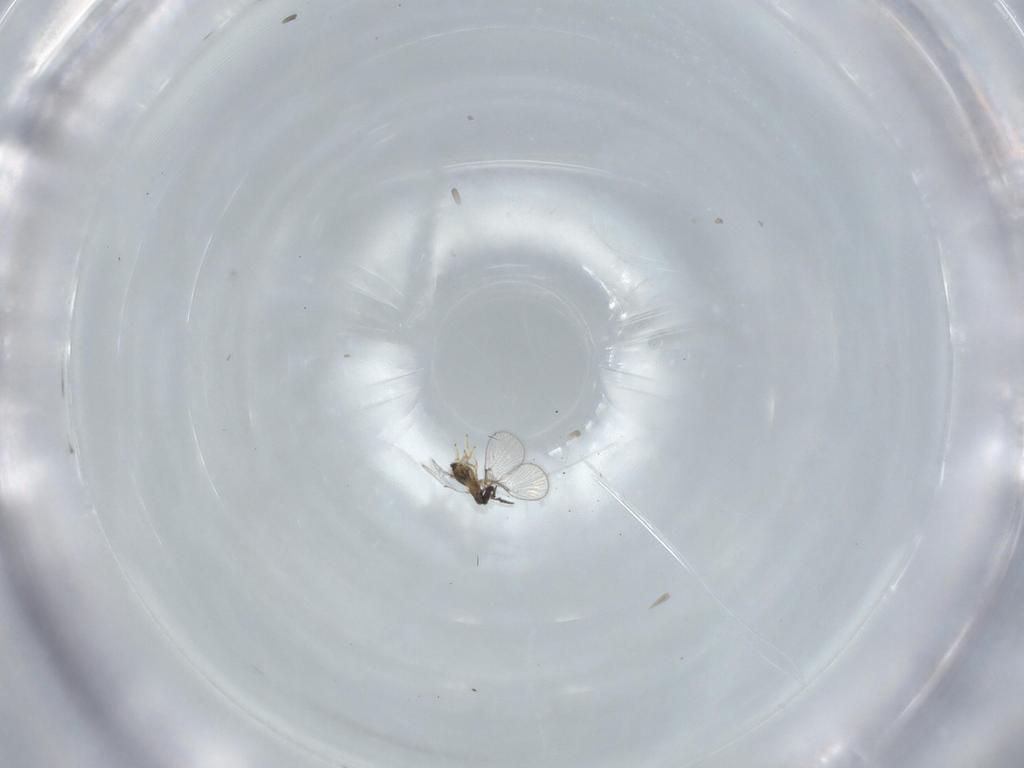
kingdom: Animalia
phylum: Arthropoda
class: Insecta
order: Hymenoptera
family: Trichogrammatidae
